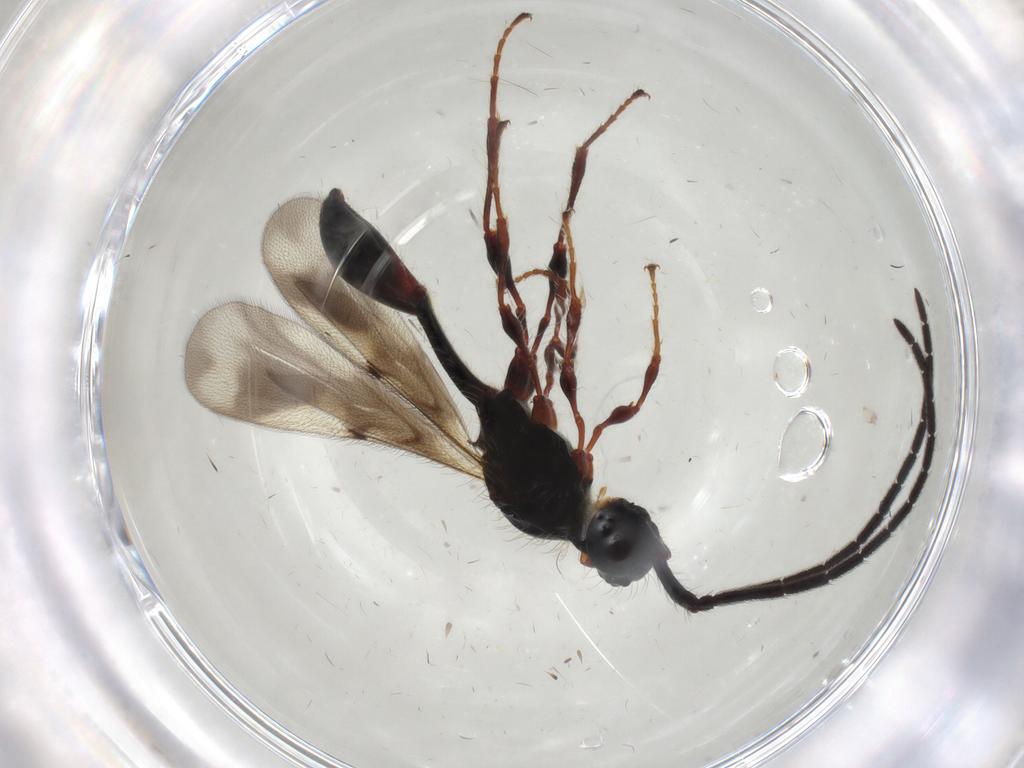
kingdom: Animalia
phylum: Arthropoda
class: Insecta
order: Hymenoptera
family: Diapriidae
